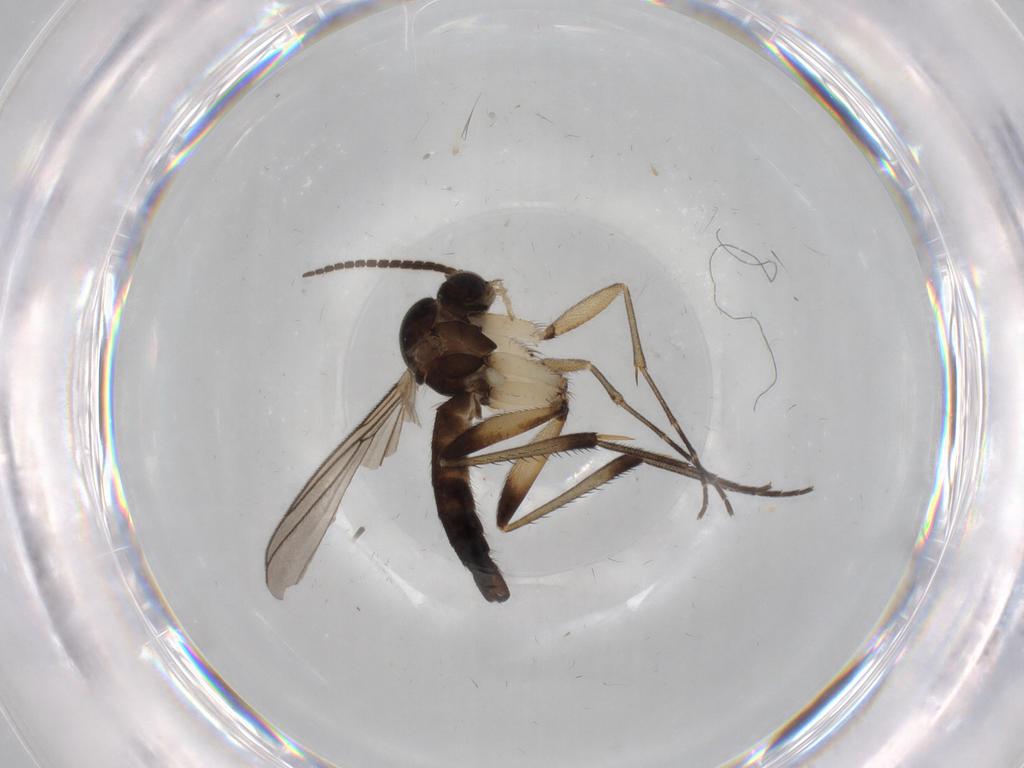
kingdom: Animalia
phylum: Arthropoda
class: Insecta
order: Diptera
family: Mycetophilidae
